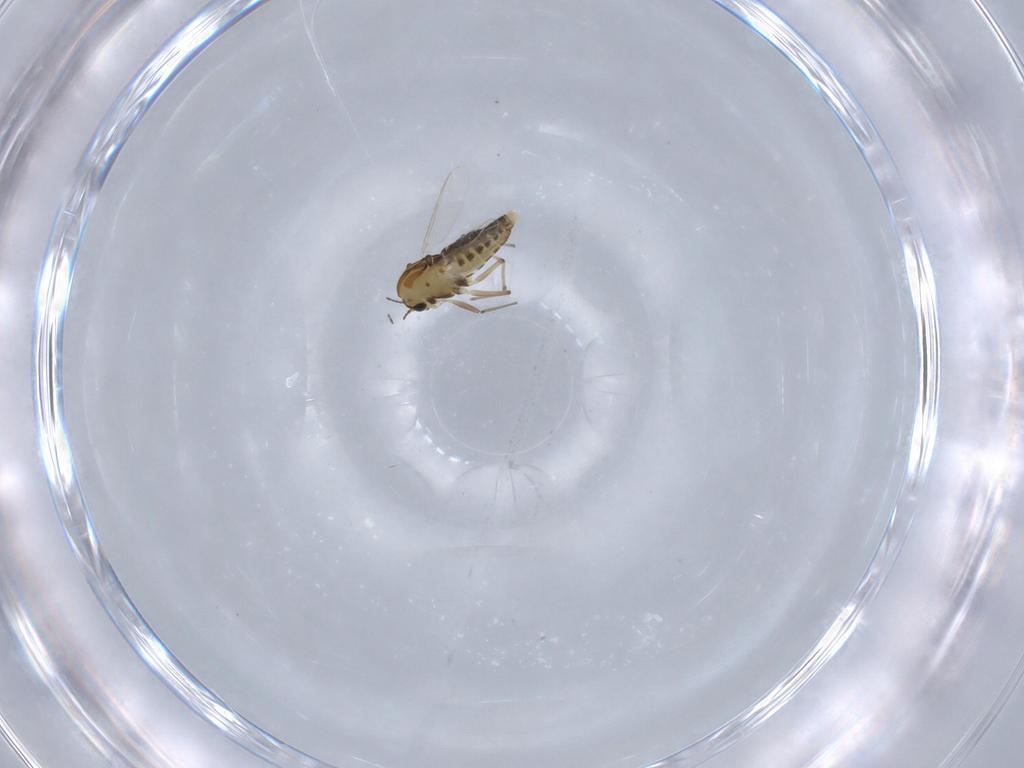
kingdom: Animalia
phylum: Arthropoda
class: Insecta
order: Diptera
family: Chironomidae
